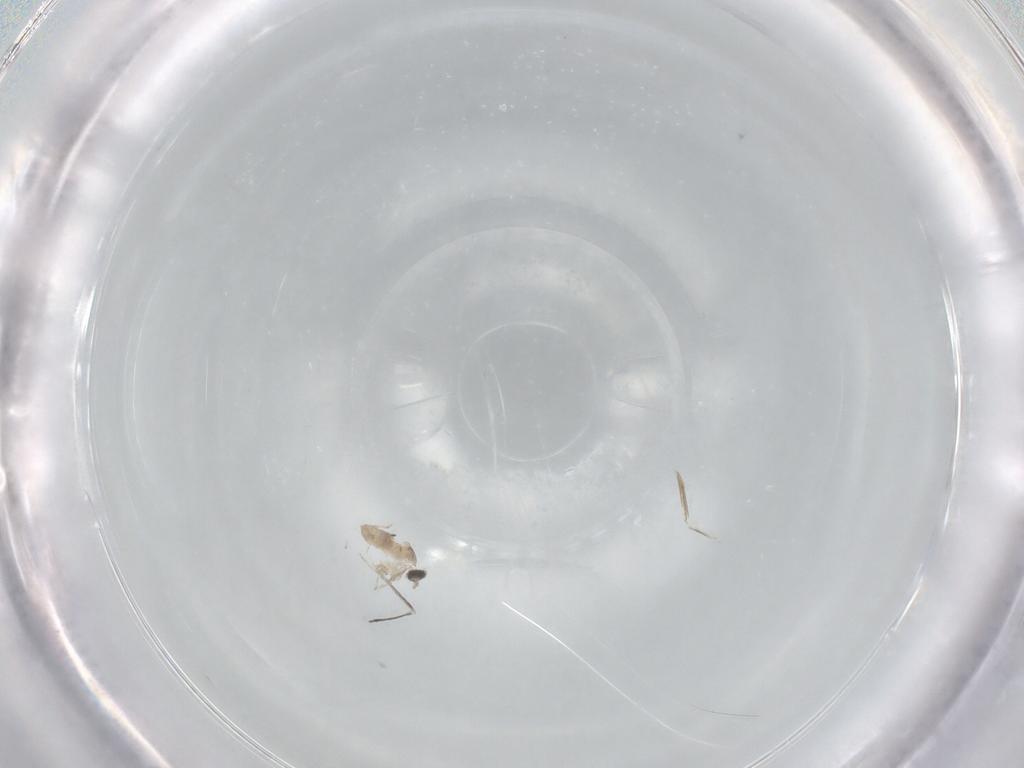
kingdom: Animalia
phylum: Arthropoda
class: Insecta
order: Diptera
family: Cecidomyiidae
